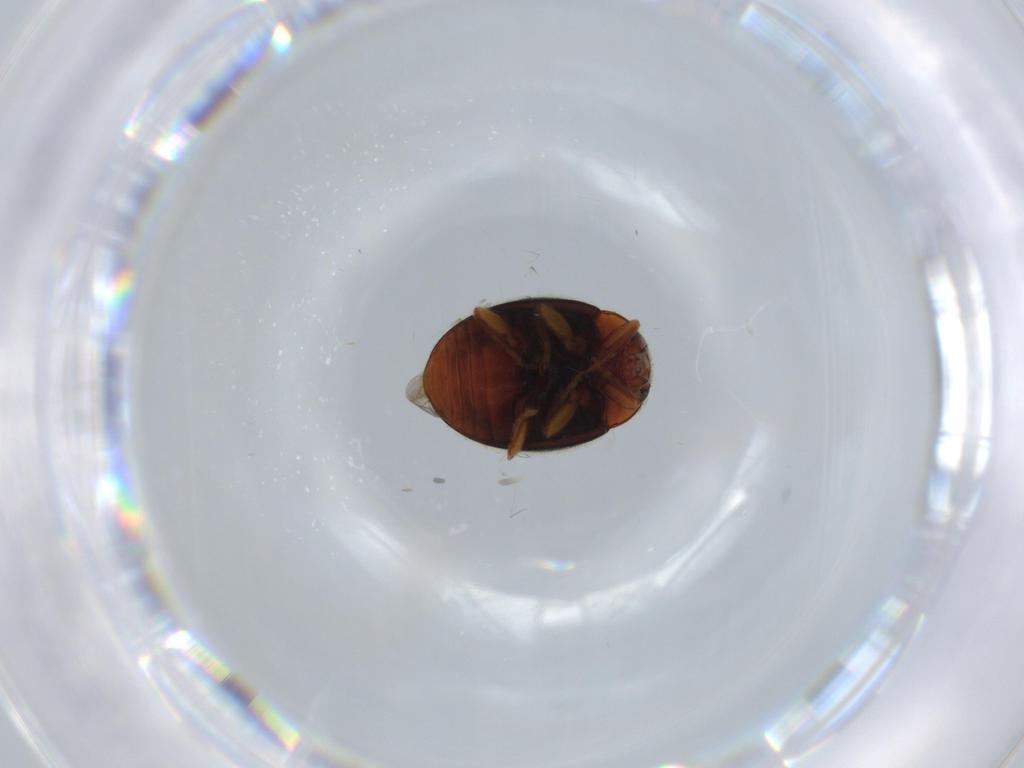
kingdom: Animalia
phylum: Arthropoda
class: Insecta
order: Coleoptera
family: Coccinellidae
